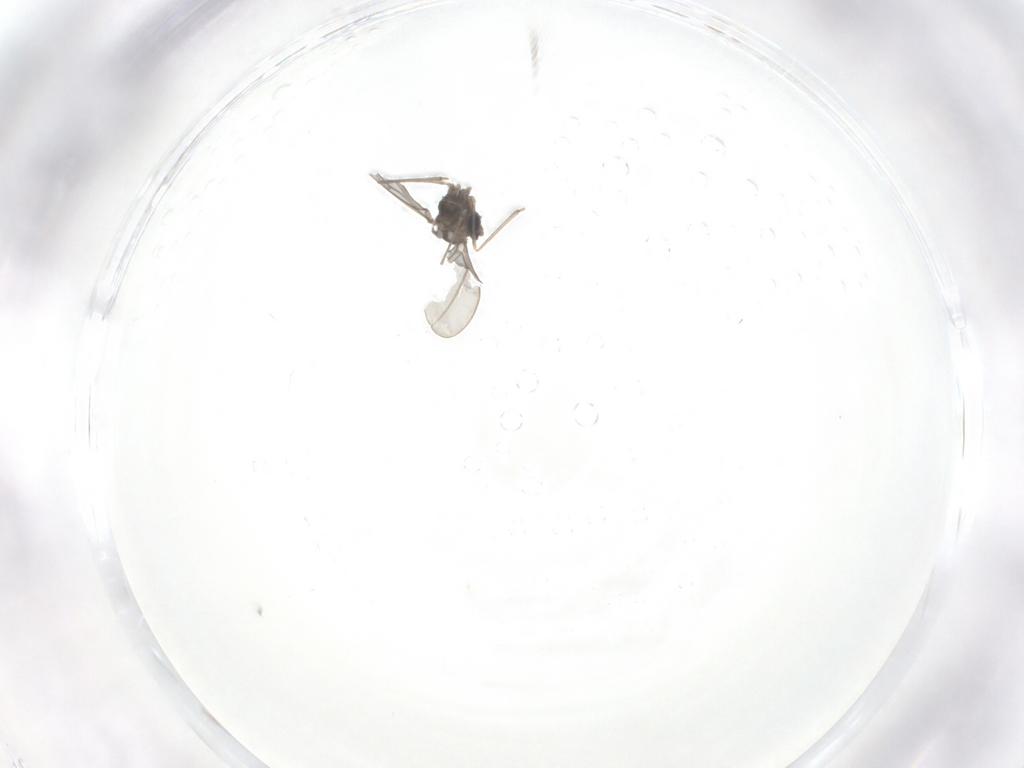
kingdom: Animalia
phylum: Arthropoda
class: Insecta
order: Diptera
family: Cecidomyiidae
